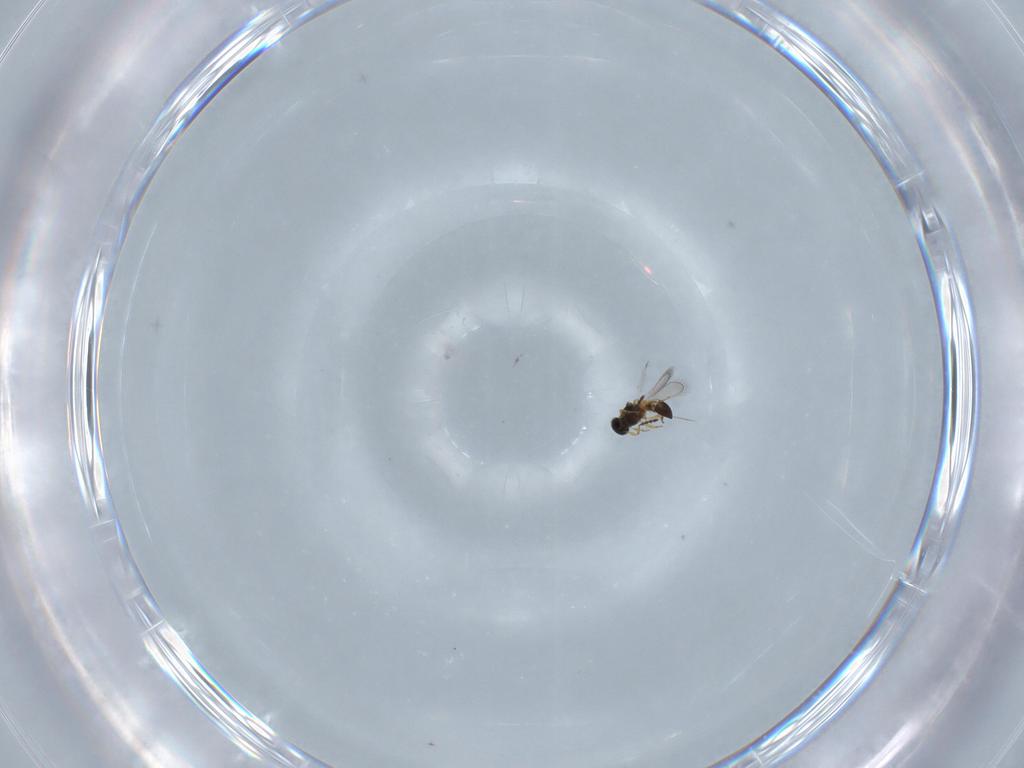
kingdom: Animalia
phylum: Arthropoda
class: Insecta
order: Hymenoptera
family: Platygastridae
